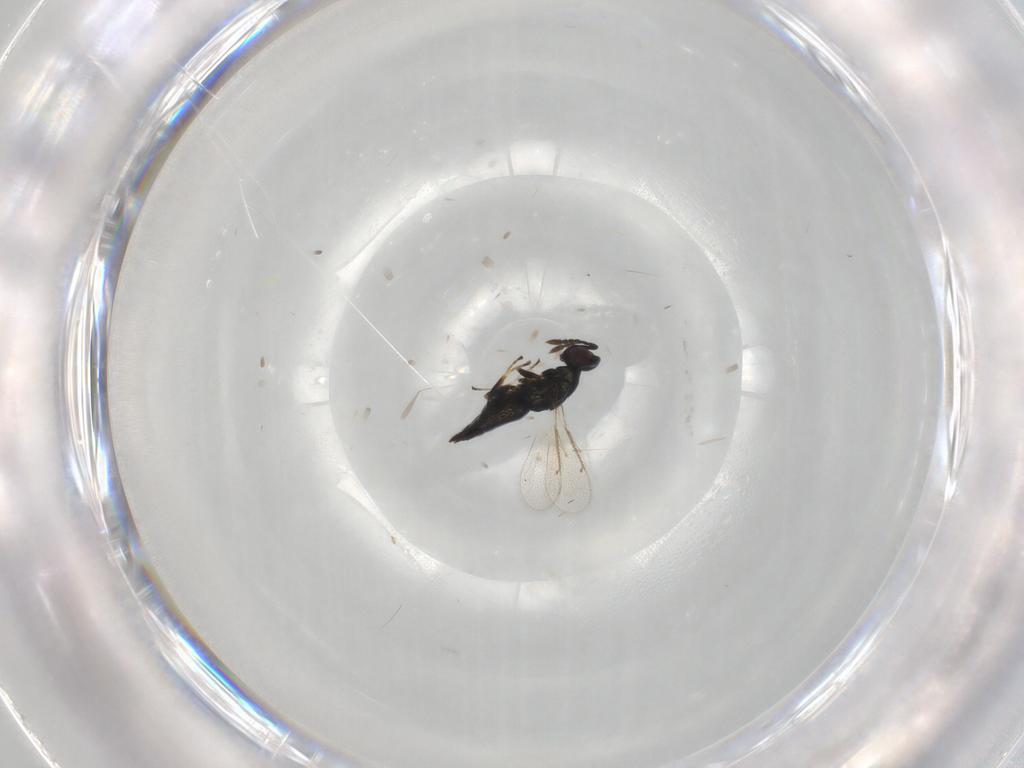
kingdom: Animalia
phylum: Arthropoda
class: Insecta
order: Hymenoptera
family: Eulophidae
